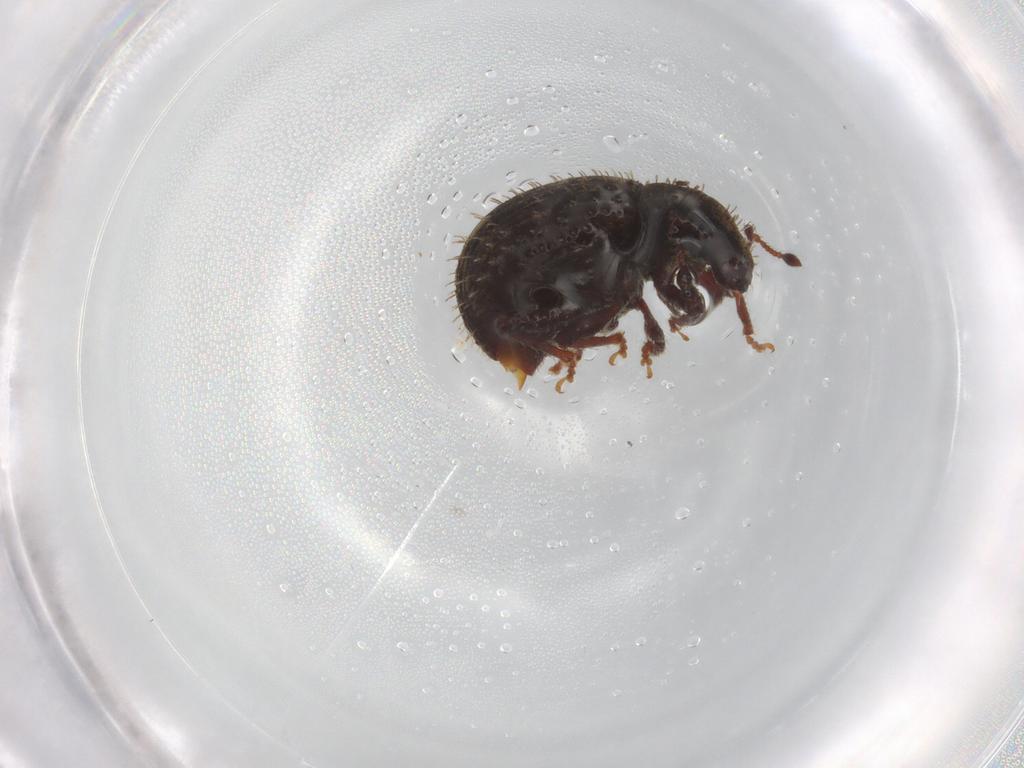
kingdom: Animalia
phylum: Arthropoda
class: Insecta
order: Coleoptera
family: Curculionidae
